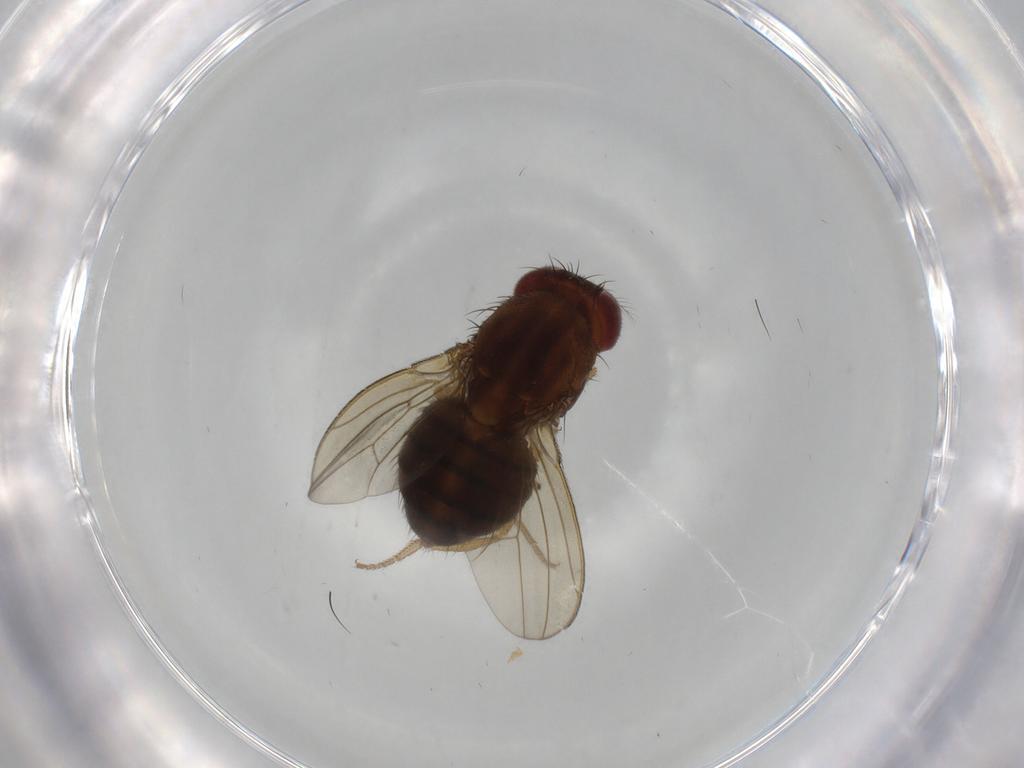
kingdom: Animalia
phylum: Arthropoda
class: Insecta
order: Diptera
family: Drosophilidae
